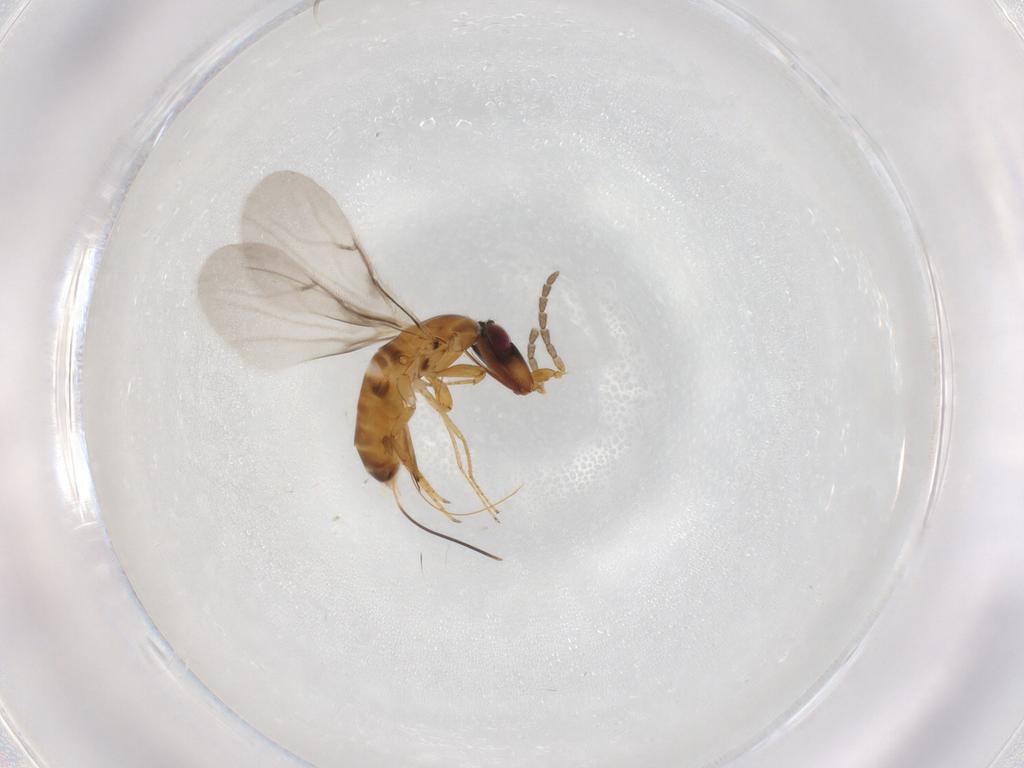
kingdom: Animalia
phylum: Arthropoda
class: Insecta
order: Hymenoptera
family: Agaonidae
